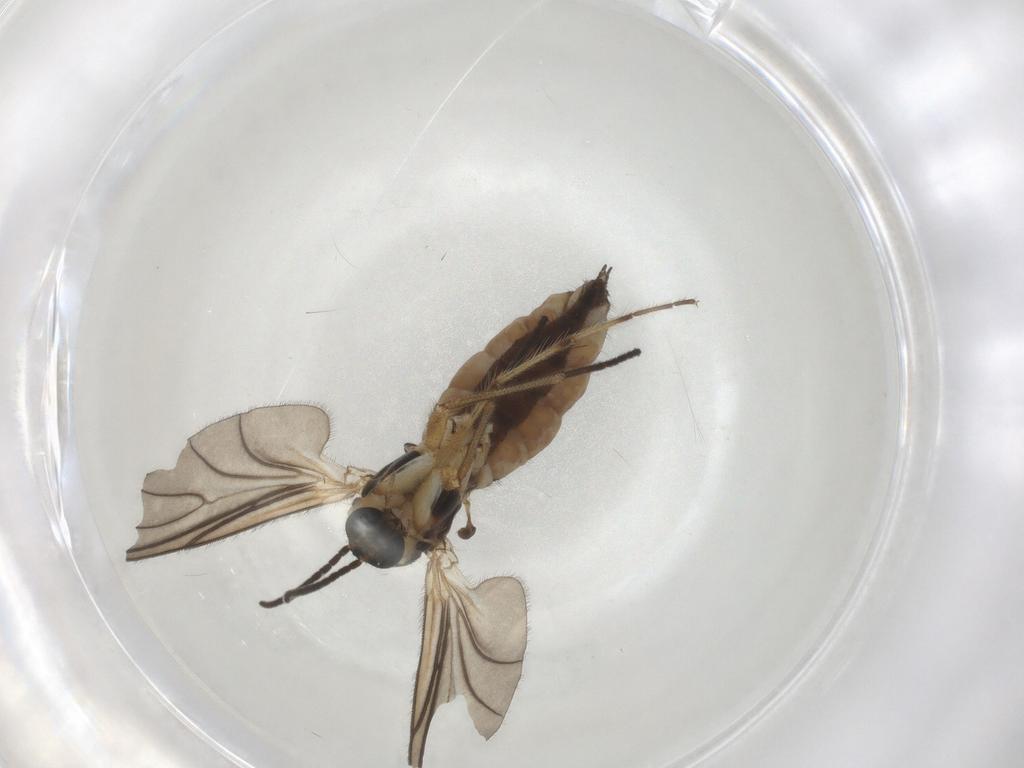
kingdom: Animalia
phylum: Arthropoda
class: Insecta
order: Diptera
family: Sciaridae
